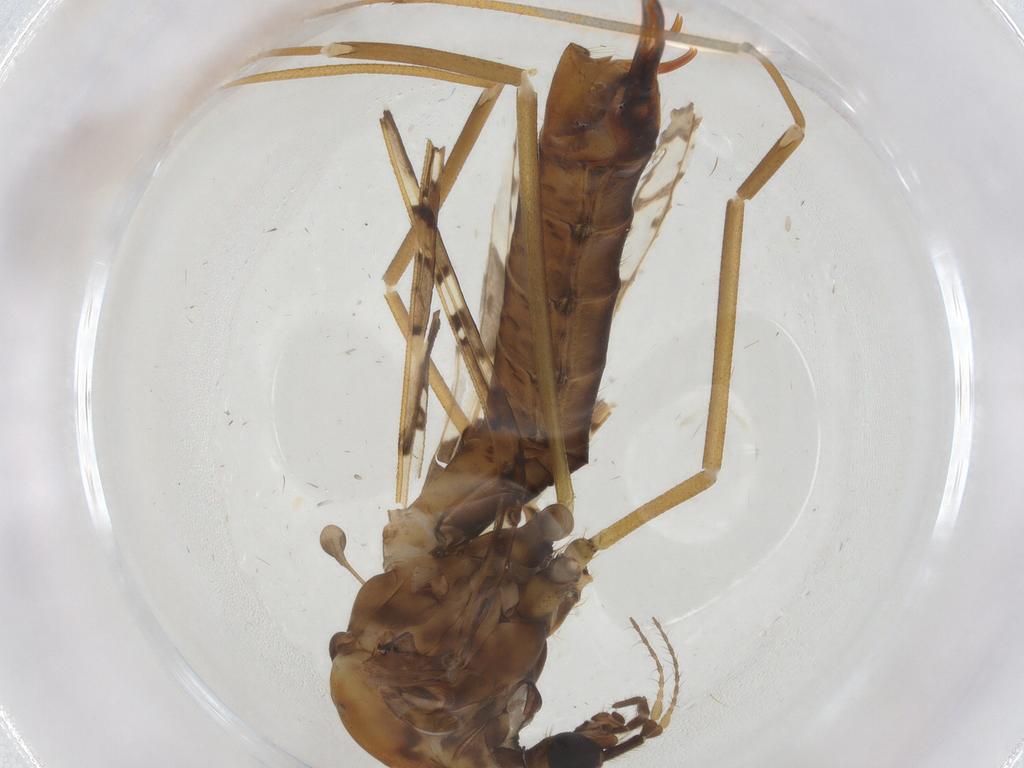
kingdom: Animalia
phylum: Arthropoda
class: Insecta
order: Diptera
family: Limoniidae
